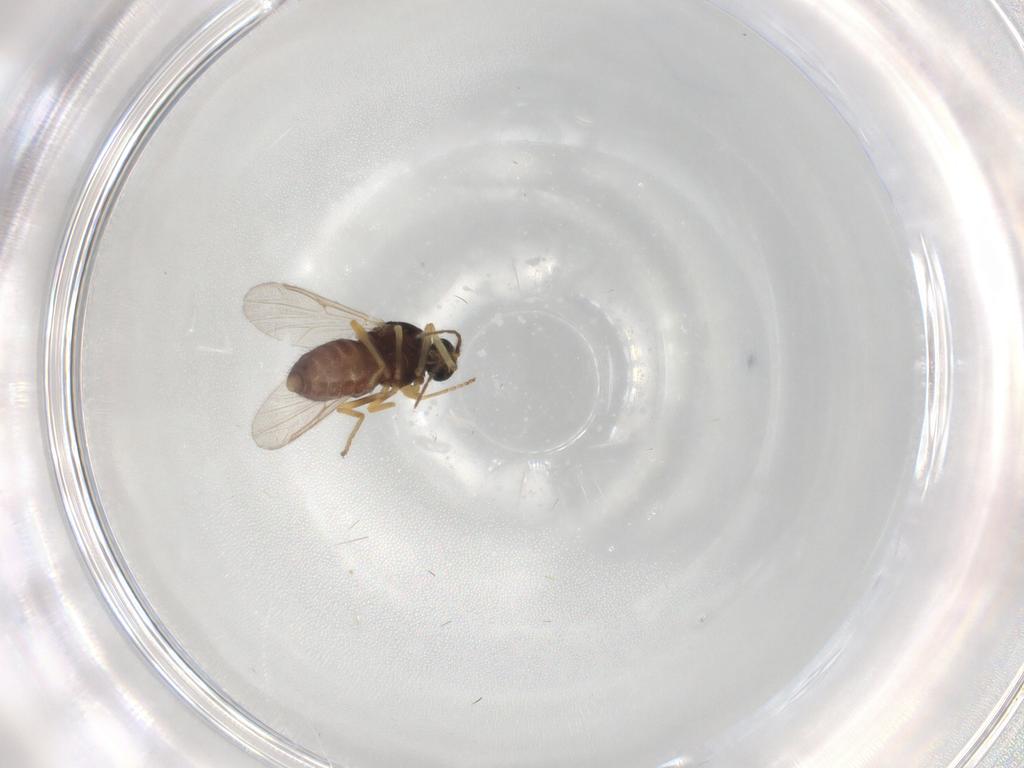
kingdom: Animalia
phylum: Arthropoda
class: Insecta
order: Diptera
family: Ceratopogonidae
